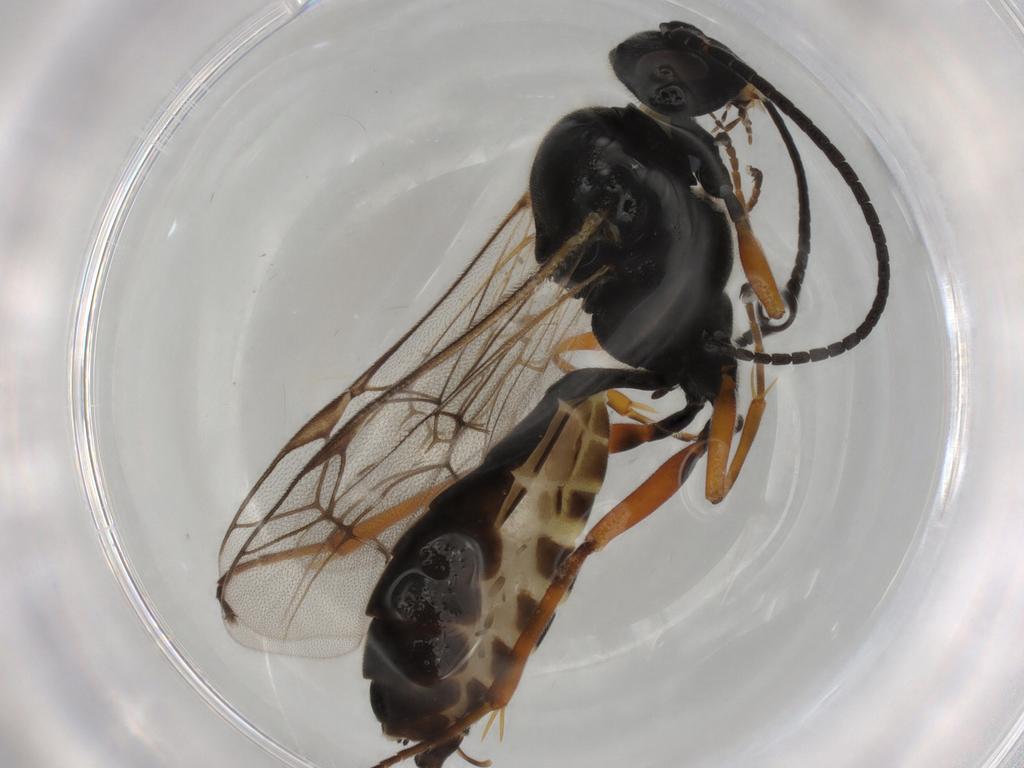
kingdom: Animalia
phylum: Arthropoda
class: Insecta
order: Hymenoptera
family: Ichneumonidae
